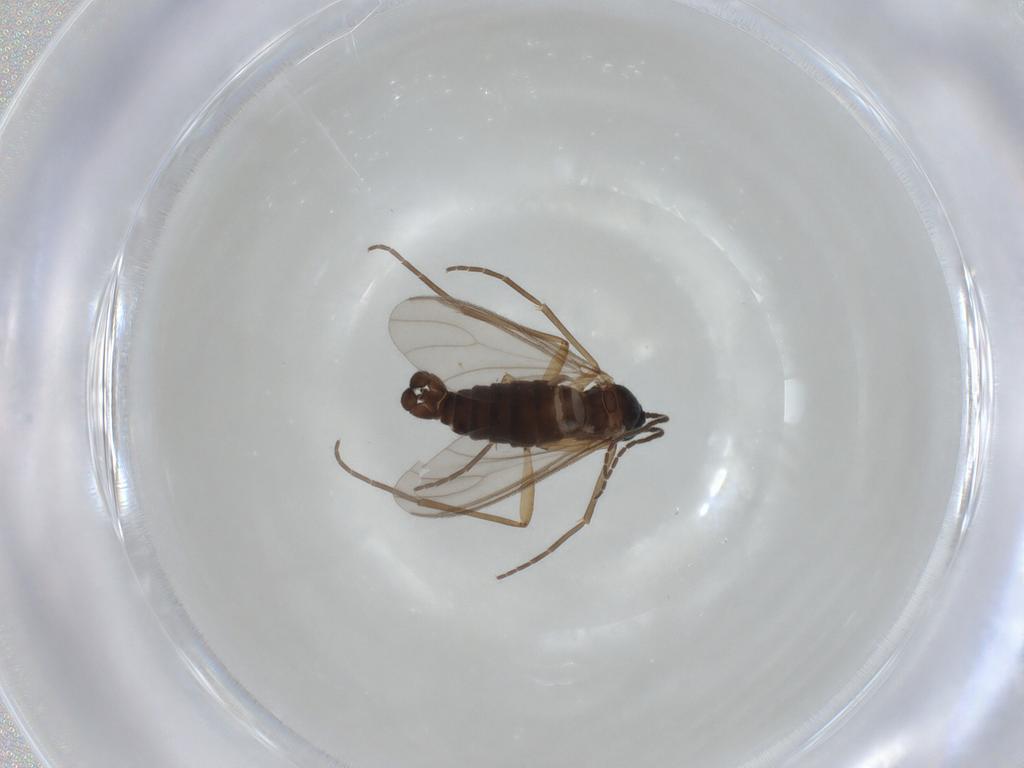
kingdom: Animalia
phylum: Arthropoda
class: Insecta
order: Diptera
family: Sciaridae
